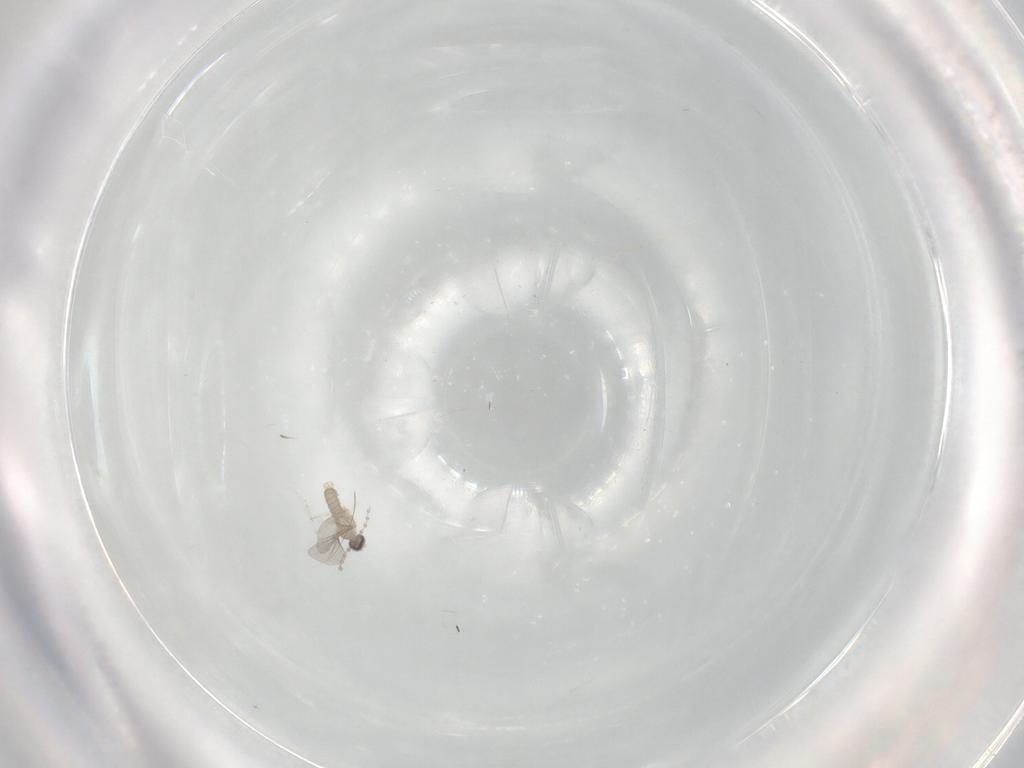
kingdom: Animalia
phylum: Arthropoda
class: Insecta
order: Diptera
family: Cecidomyiidae
